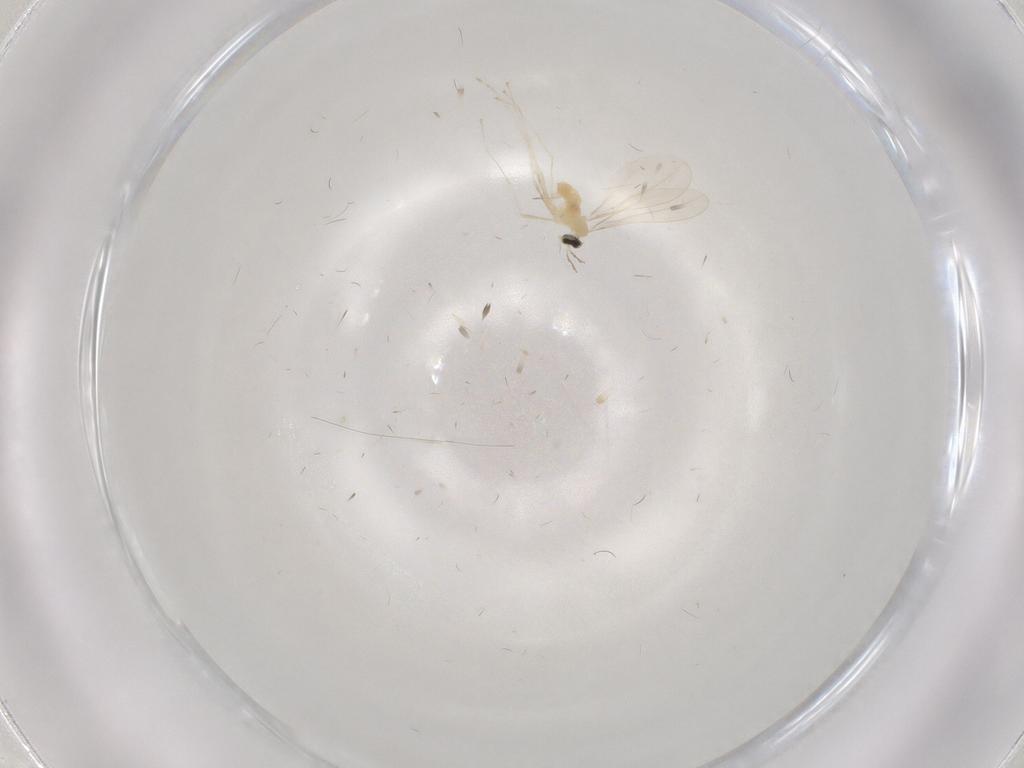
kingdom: Animalia
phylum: Arthropoda
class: Insecta
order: Diptera
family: Cecidomyiidae
